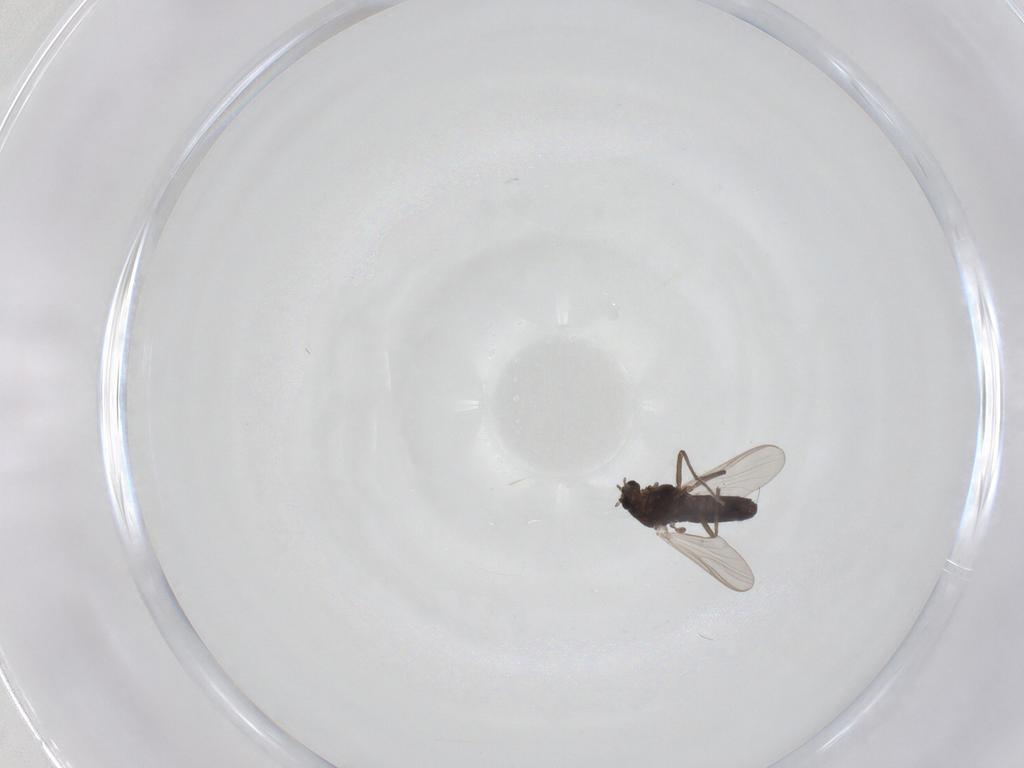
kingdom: Animalia
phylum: Arthropoda
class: Insecta
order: Diptera
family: Chironomidae
